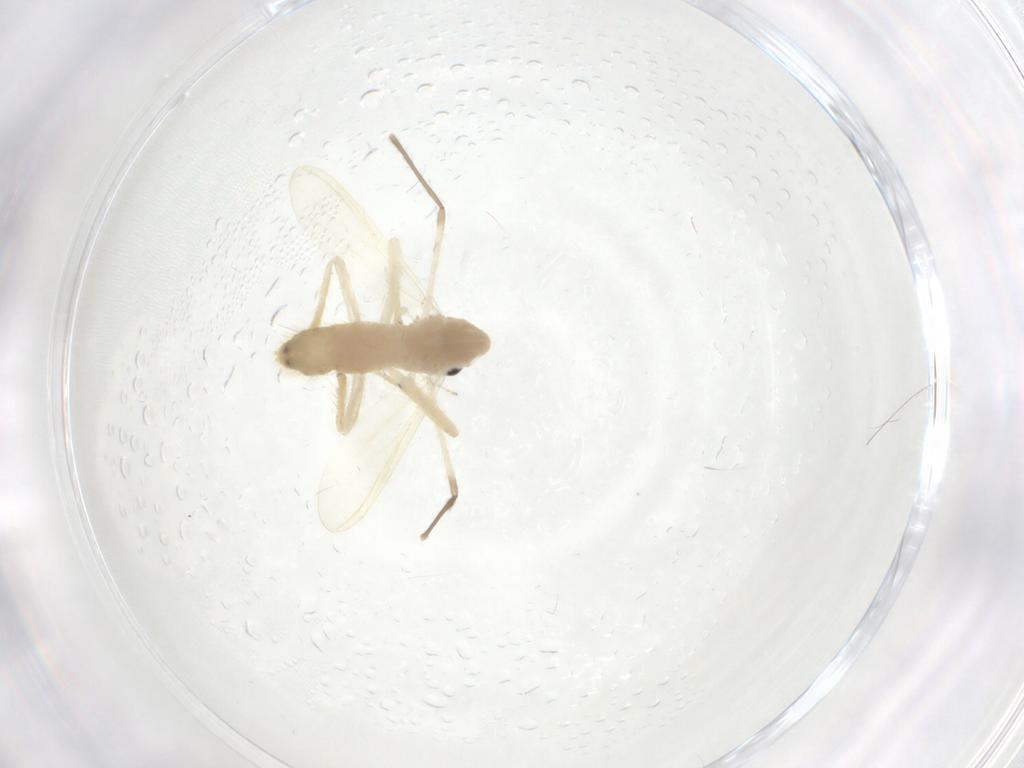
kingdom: Animalia
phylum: Arthropoda
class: Insecta
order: Diptera
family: Chironomidae
